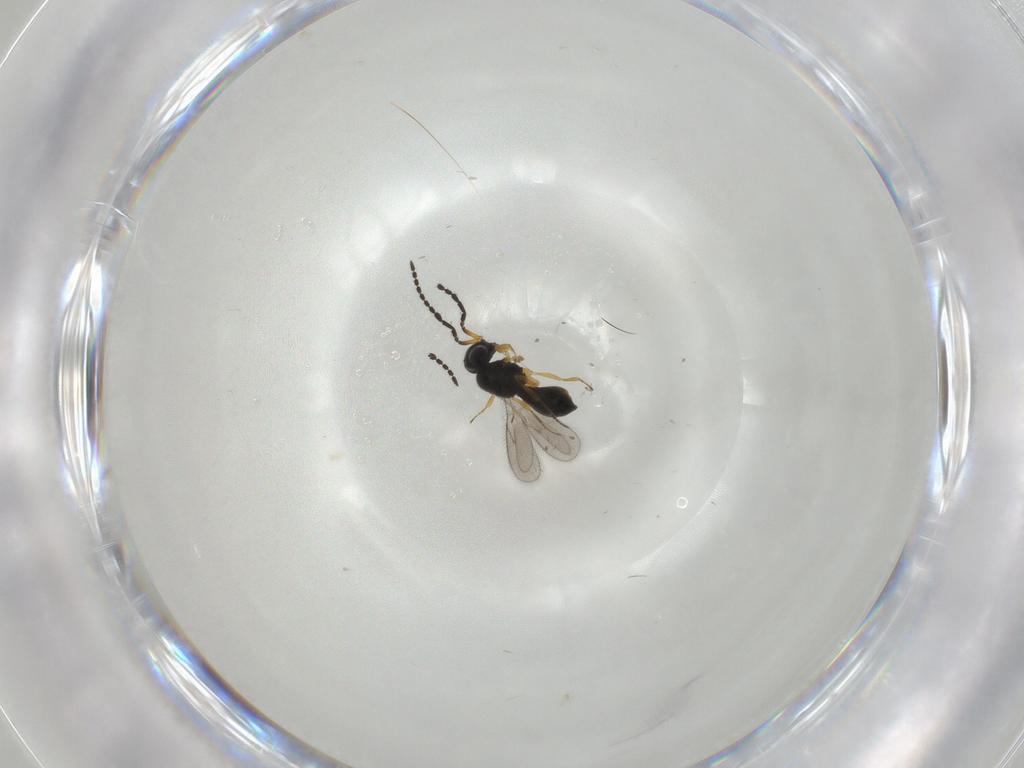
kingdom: Animalia
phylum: Arthropoda
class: Insecta
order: Hymenoptera
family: Scelionidae
